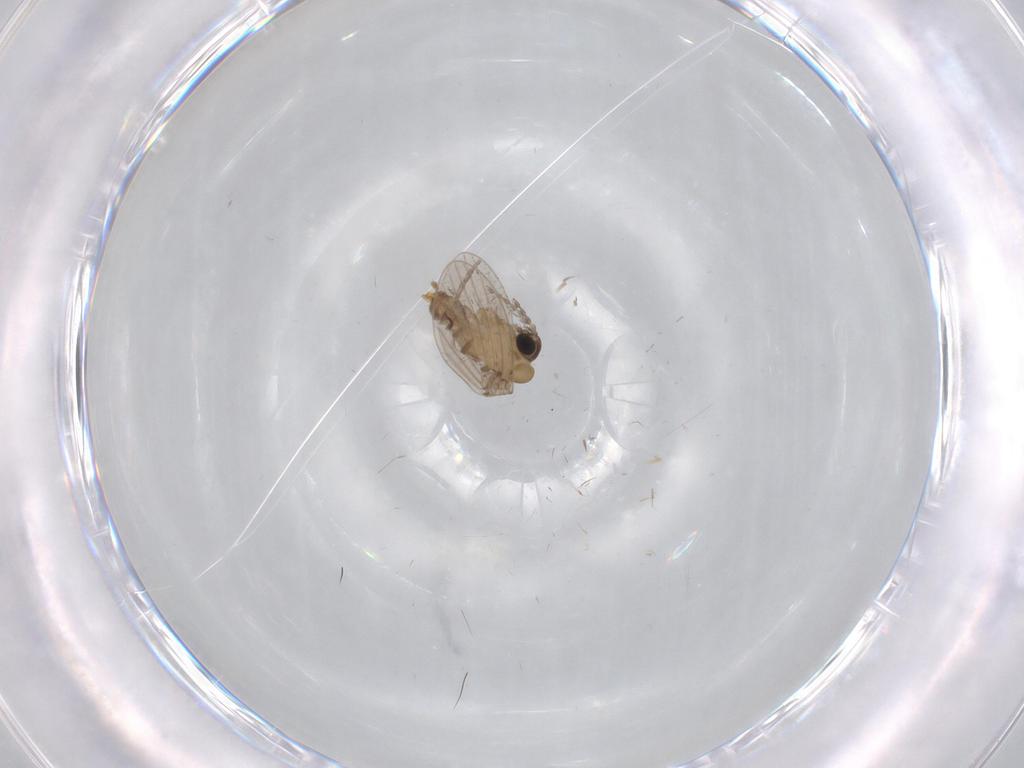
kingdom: Animalia
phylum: Arthropoda
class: Insecta
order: Diptera
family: Psychodidae
